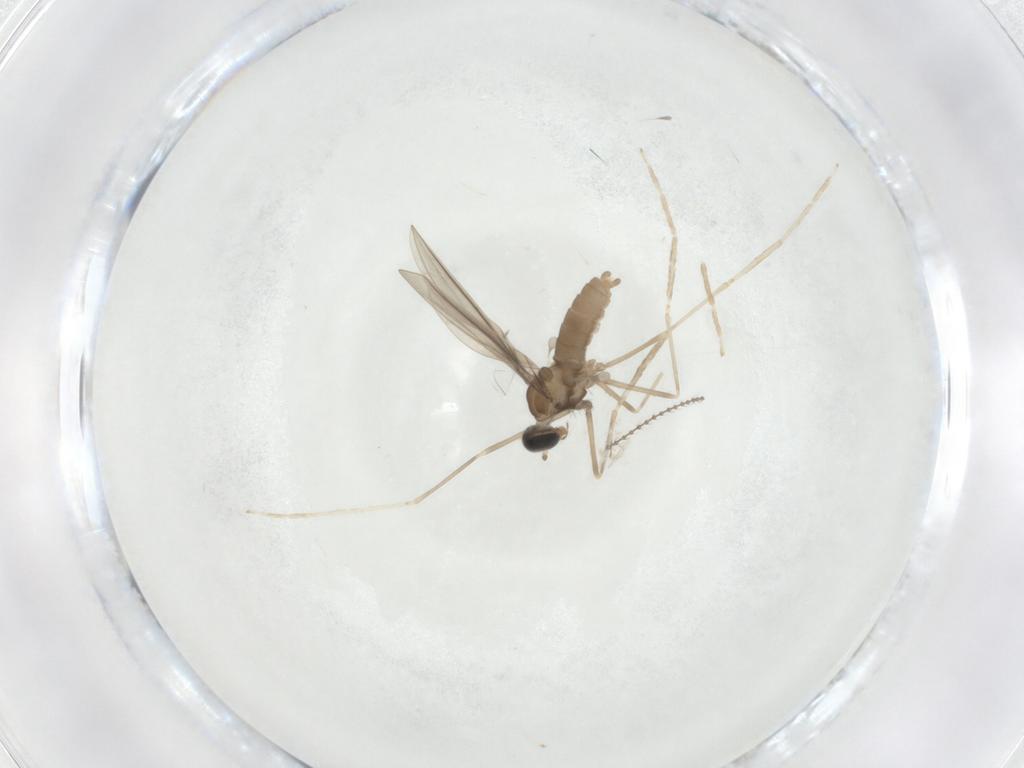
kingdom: Animalia
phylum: Arthropoda
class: Insecta
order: Diptera
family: Cecidomyiidae
